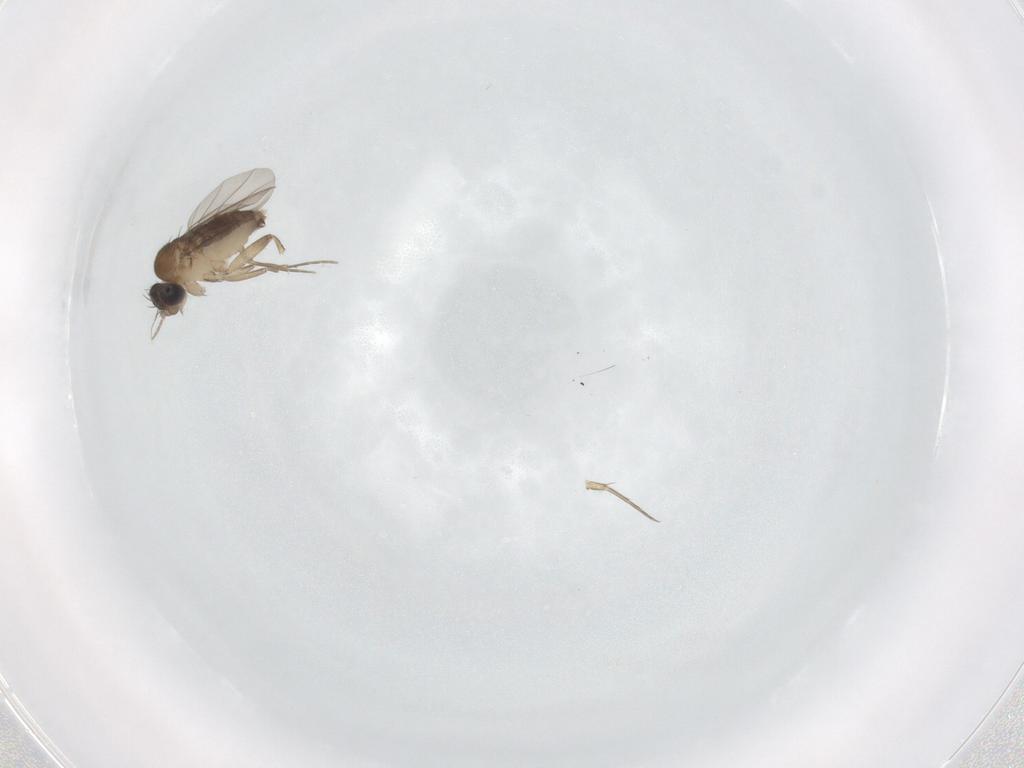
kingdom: Animalia
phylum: Arthropoda
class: Insecta
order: Diptera
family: Phoridae
